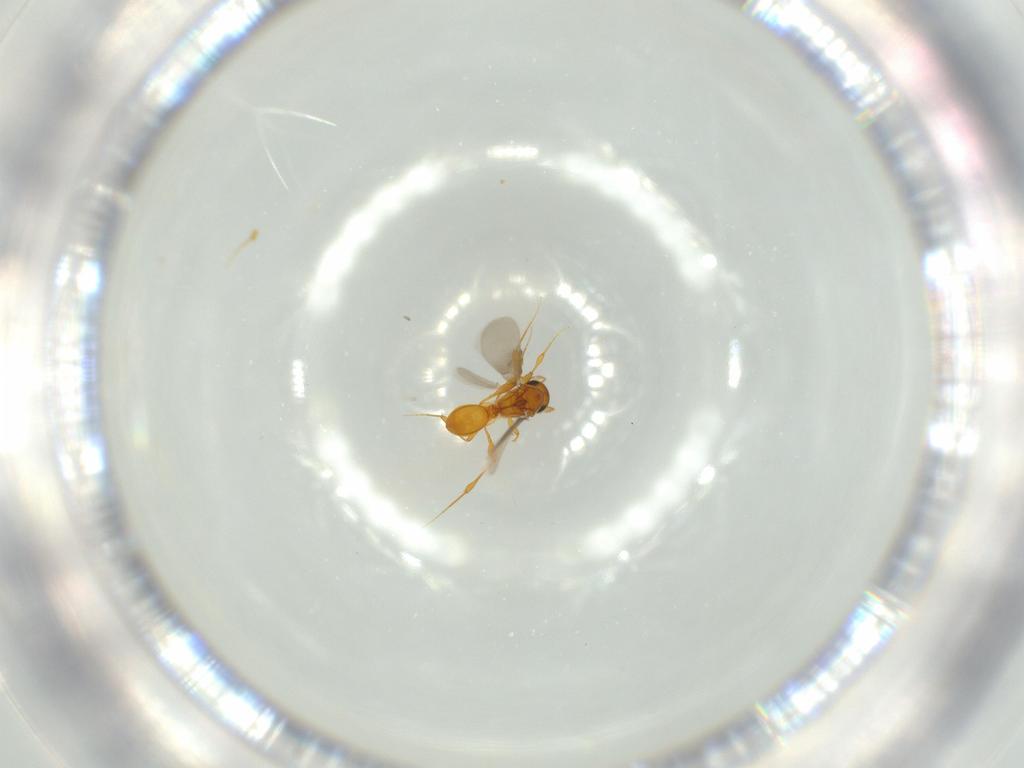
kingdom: Animalia
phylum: Arthropoda
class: Insecta
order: Hymenoptera
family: Platygastridae
